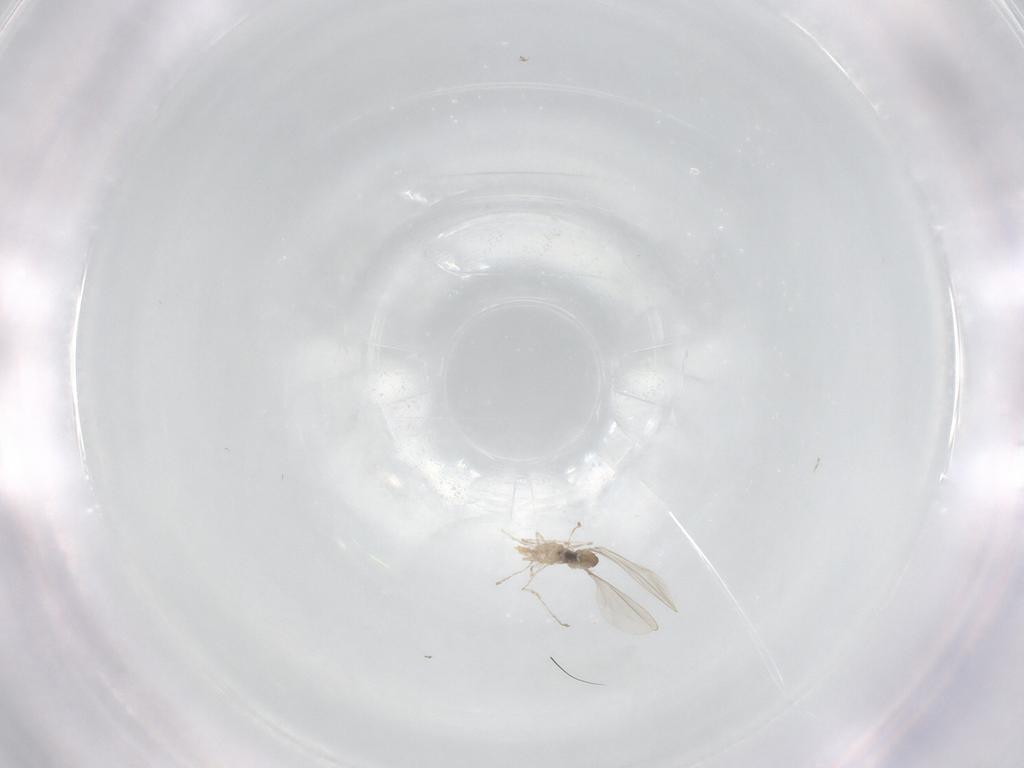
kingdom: Animalia
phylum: Arthropoda
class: Insecta
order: Diptera
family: Cecidomyiidae
